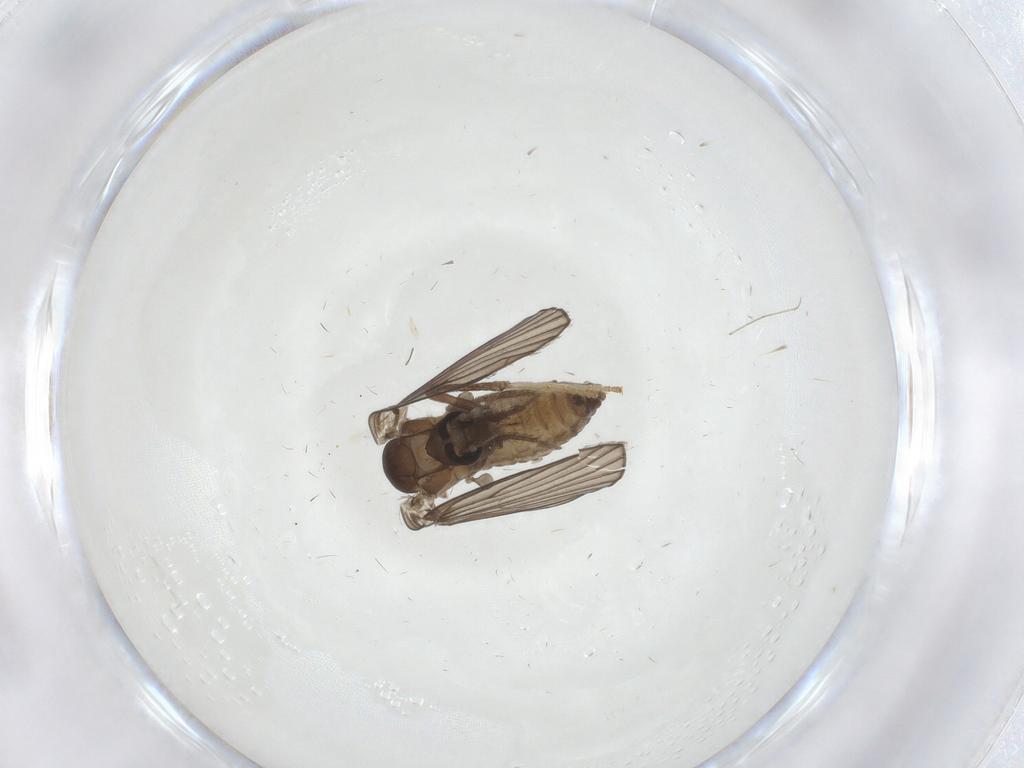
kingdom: Animalia
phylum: Arthropoda
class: Insecta
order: Diptera
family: Psychodidae
